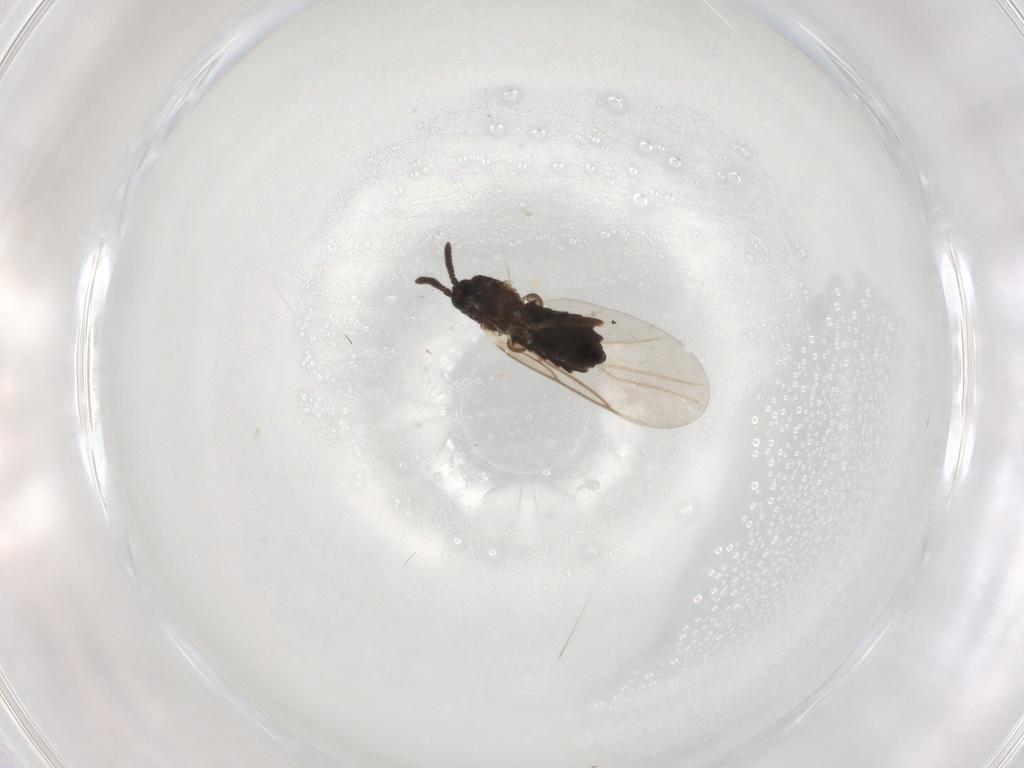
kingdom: Animalia
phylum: Arthropoda
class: Insecta
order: Diptera
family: Scatopsidae
